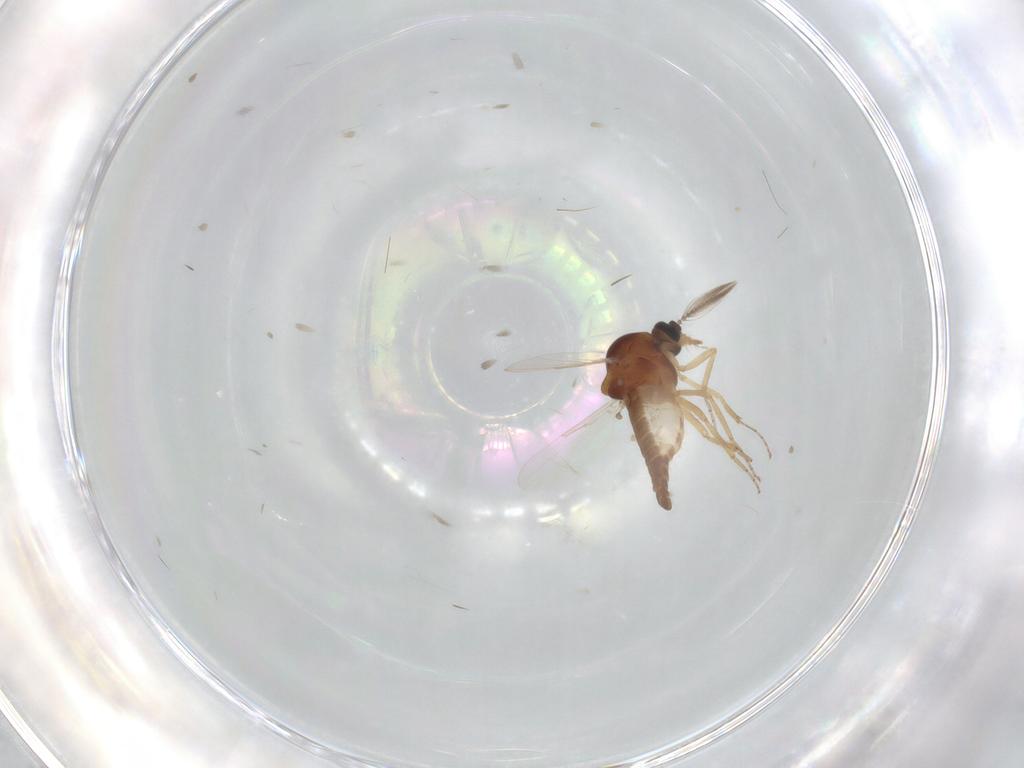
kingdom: Animalia
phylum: Arthropoda
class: Insecta
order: Diptera
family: Ceratopogonidae
